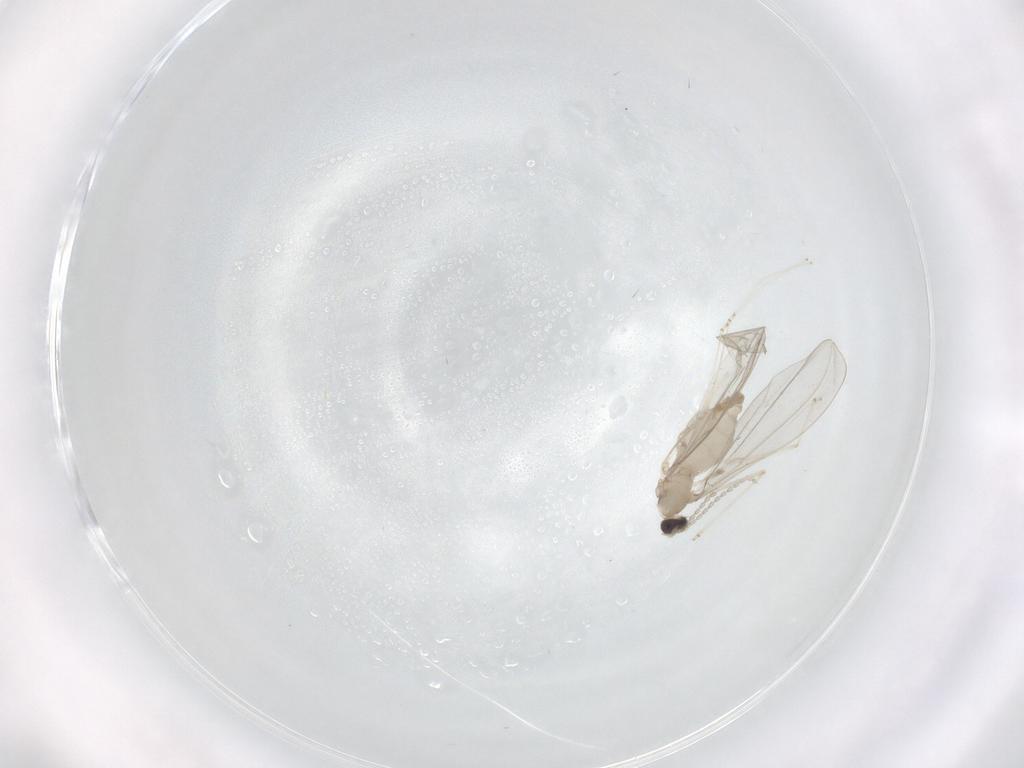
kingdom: Animalia
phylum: Arthropoda
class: Insecta
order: Diptera
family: Cecidomyiidae
